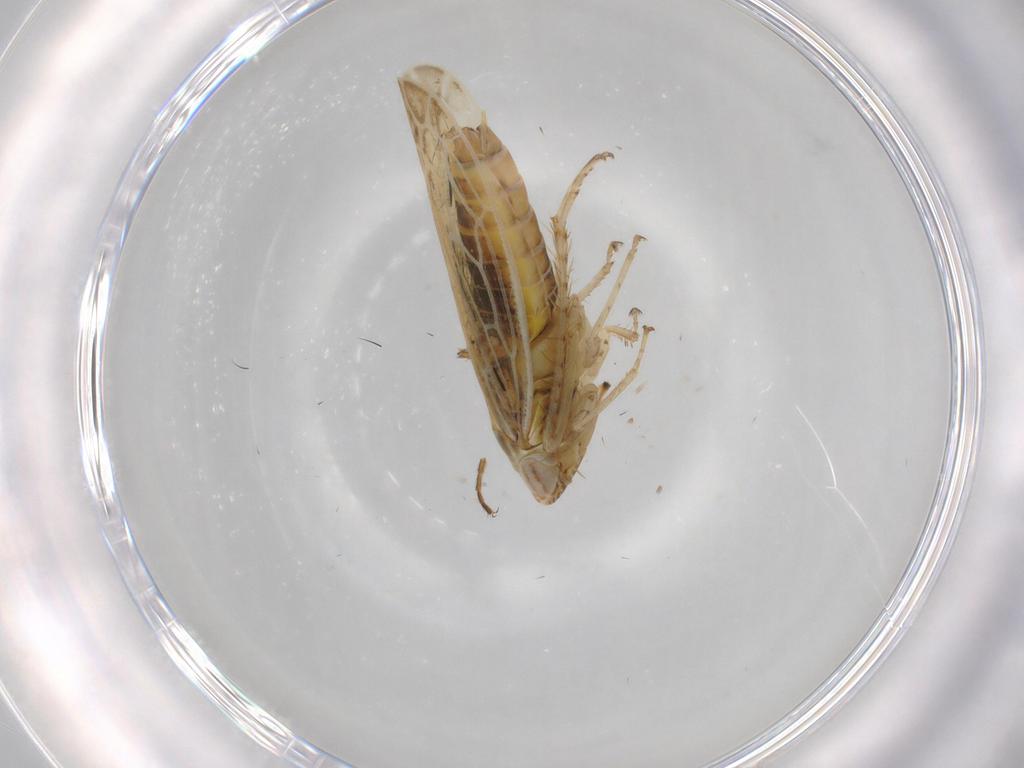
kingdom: Animalia
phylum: Arthropoda
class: Insecta
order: Hemiptera
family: Cicadellidae
